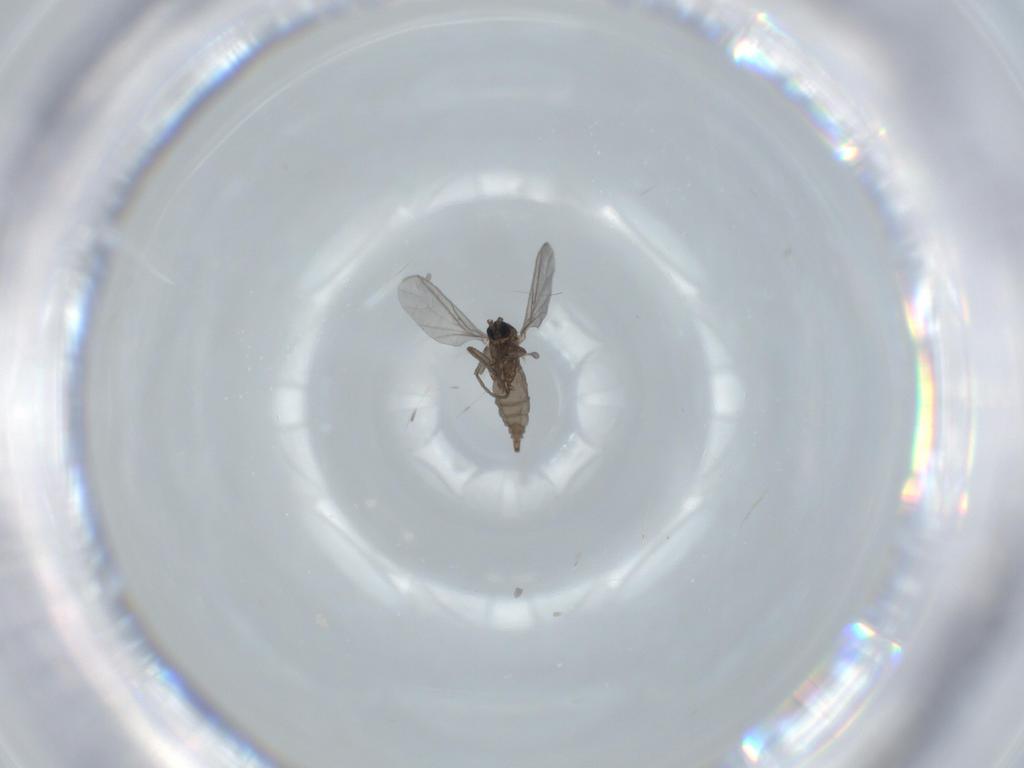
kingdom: Animalia
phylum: Arthropoda
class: Insecta
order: Diptera
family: Sciaridae
